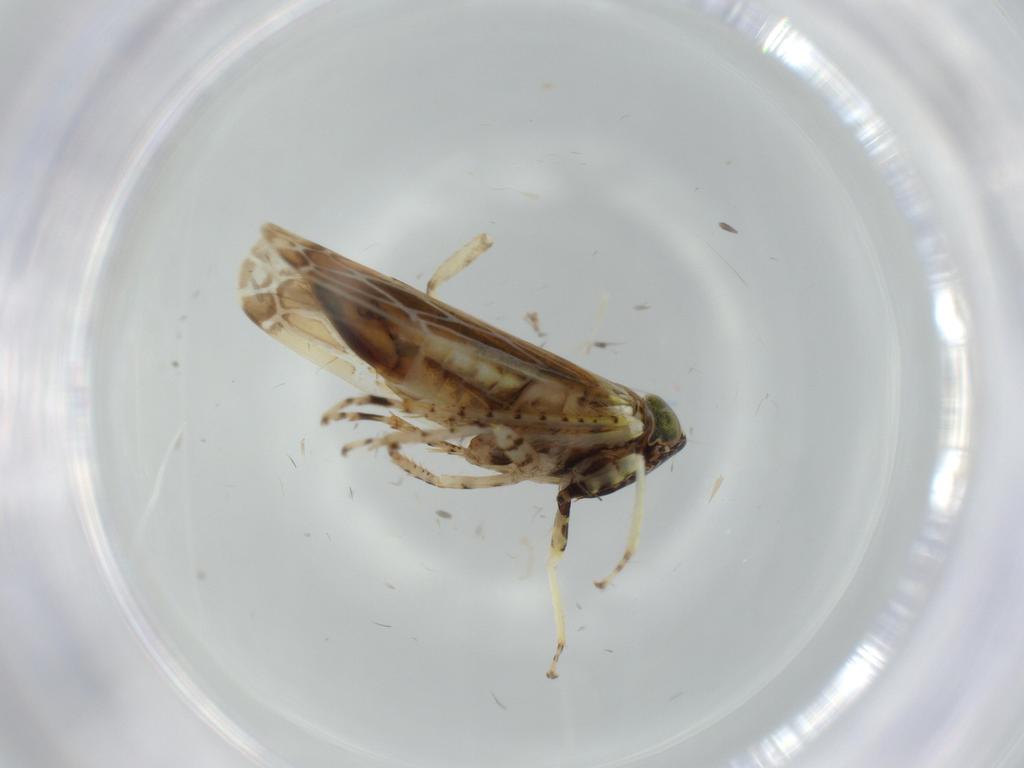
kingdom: Animalia
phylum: Arthropoda
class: Insecta
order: Hemiptera
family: Cicadellidae
